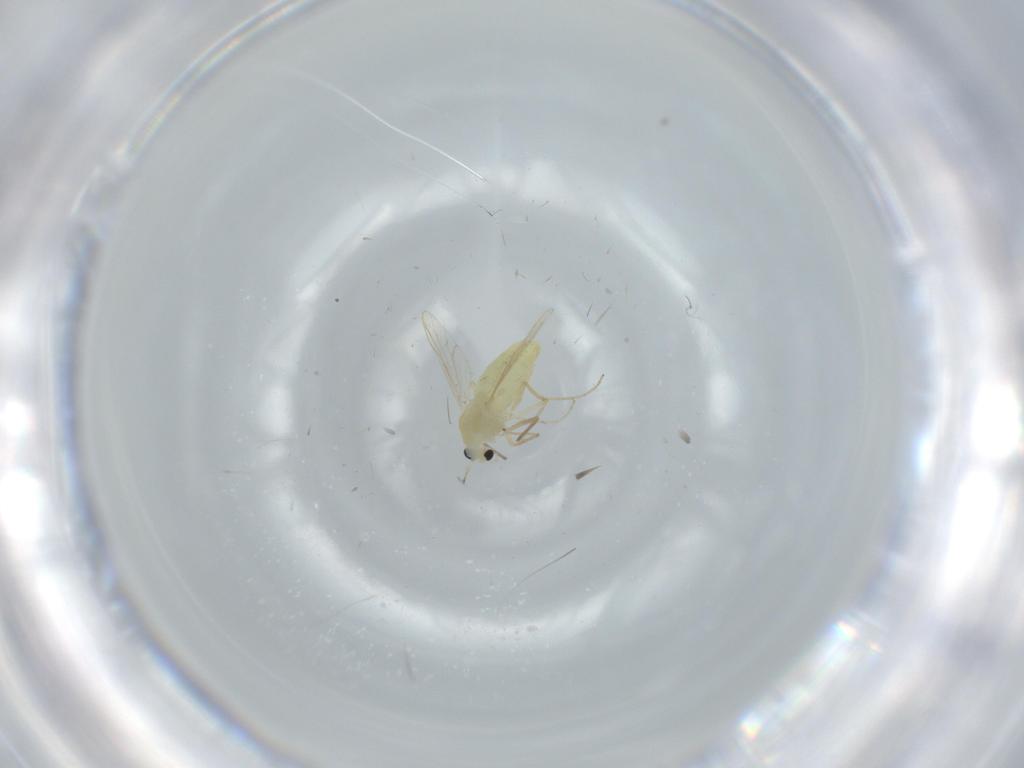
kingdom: Animalia
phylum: Arthropoda
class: Insecta
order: Diptera
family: Chironomidae
